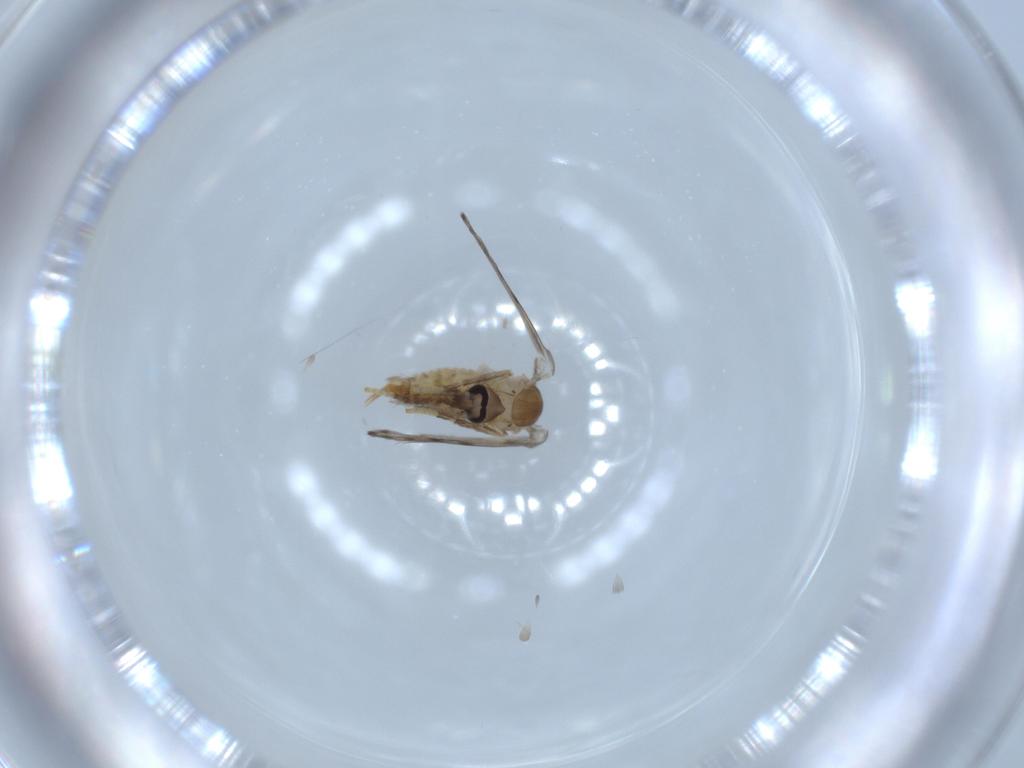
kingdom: Animalia
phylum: Arthropoda
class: Insecta
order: Diptera
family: Psychodidae
